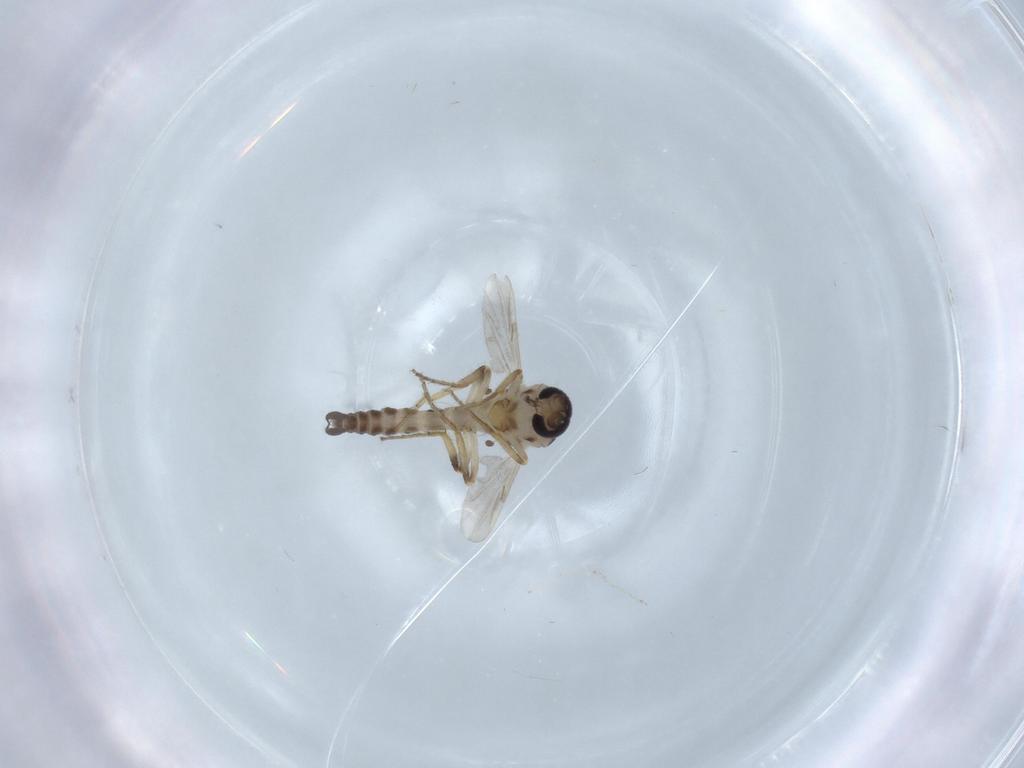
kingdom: Animalia
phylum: Arthropoda
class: Insecta
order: Diptera
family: Ceratopogonidae
